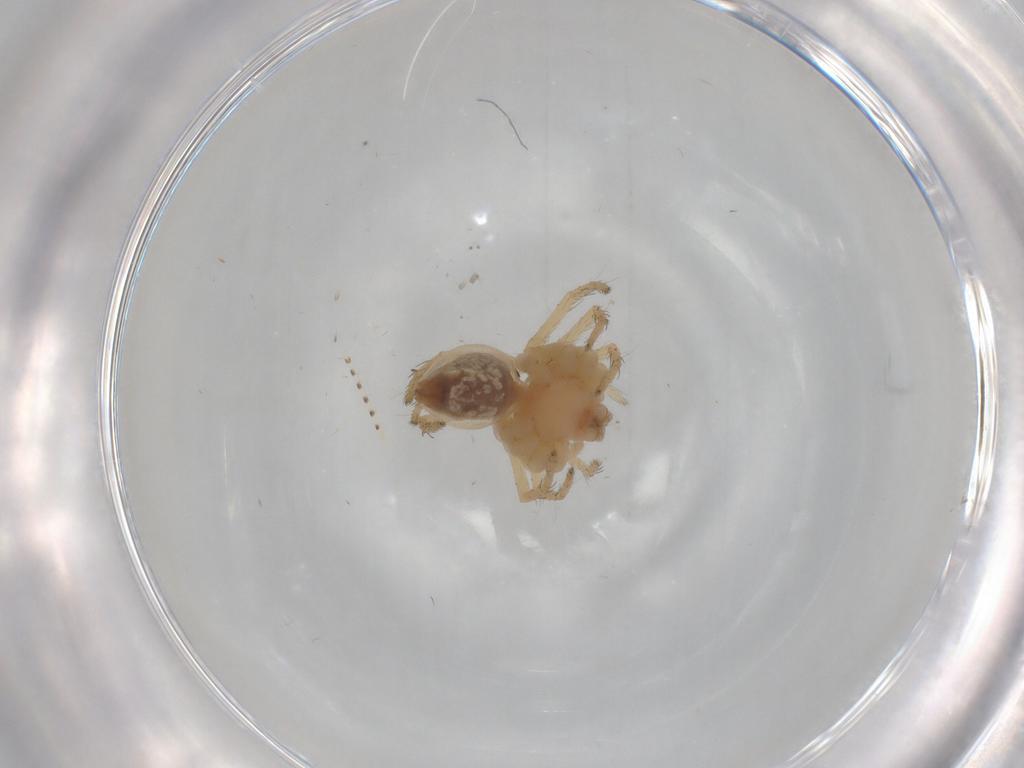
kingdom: Animalia
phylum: Arthropoda
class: Arachnida
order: Araneae
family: Pisauridae
